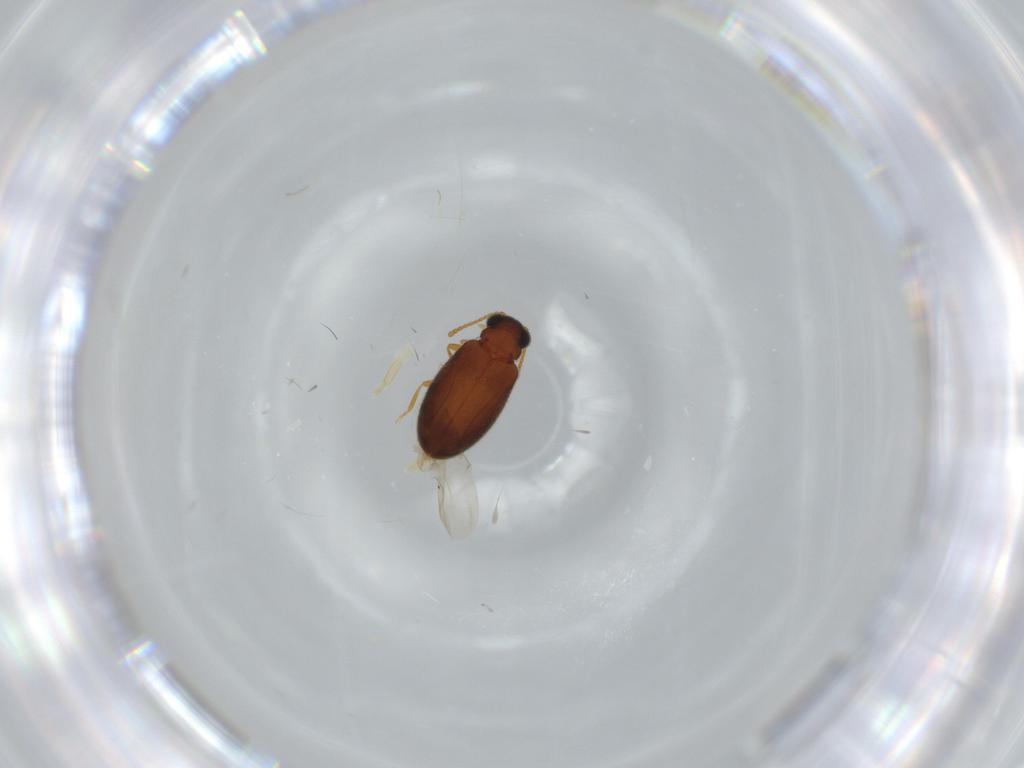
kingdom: Animalia
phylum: Arthropoda
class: Insecta
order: Coleoptera
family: Aderidae
